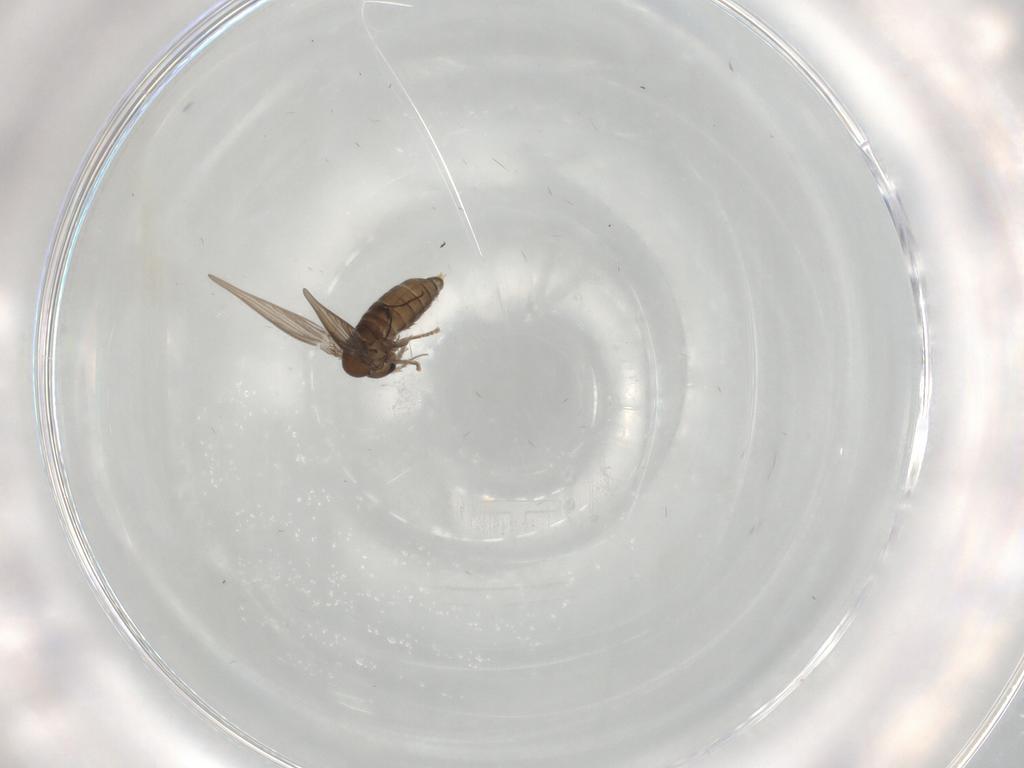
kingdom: Animalia
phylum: Arthropoda
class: Insecta
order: Diptera
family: Psychodidae
